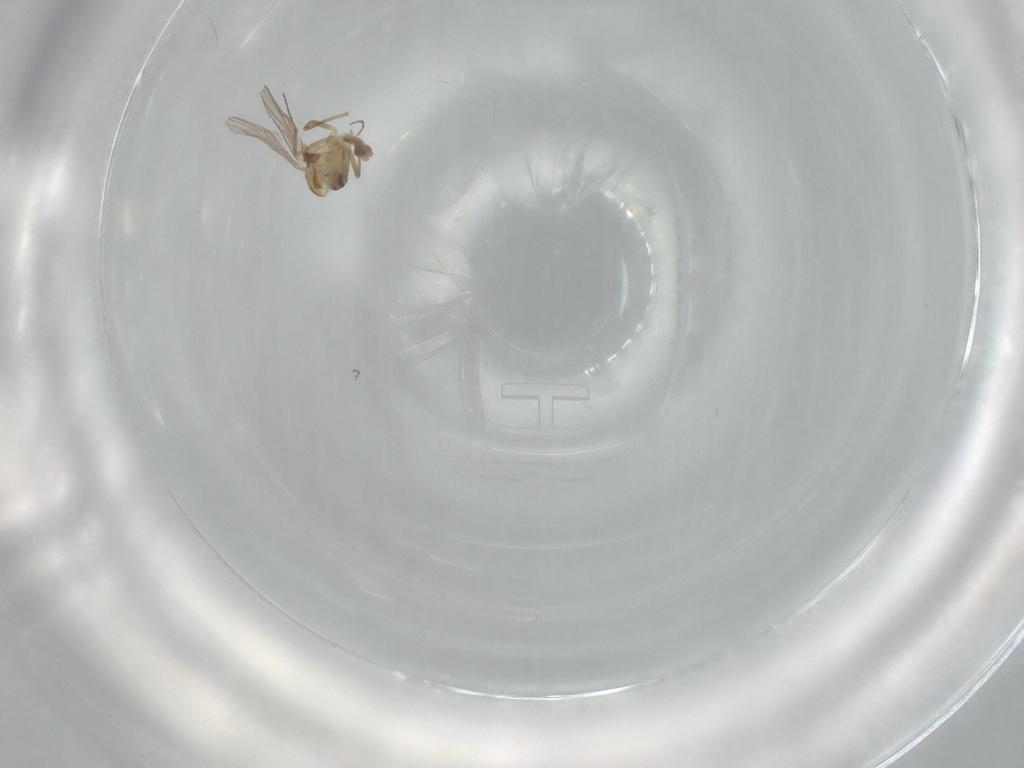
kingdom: Animalia
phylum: Arthropoda
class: Insecta
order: Diptera
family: Chironomidae
